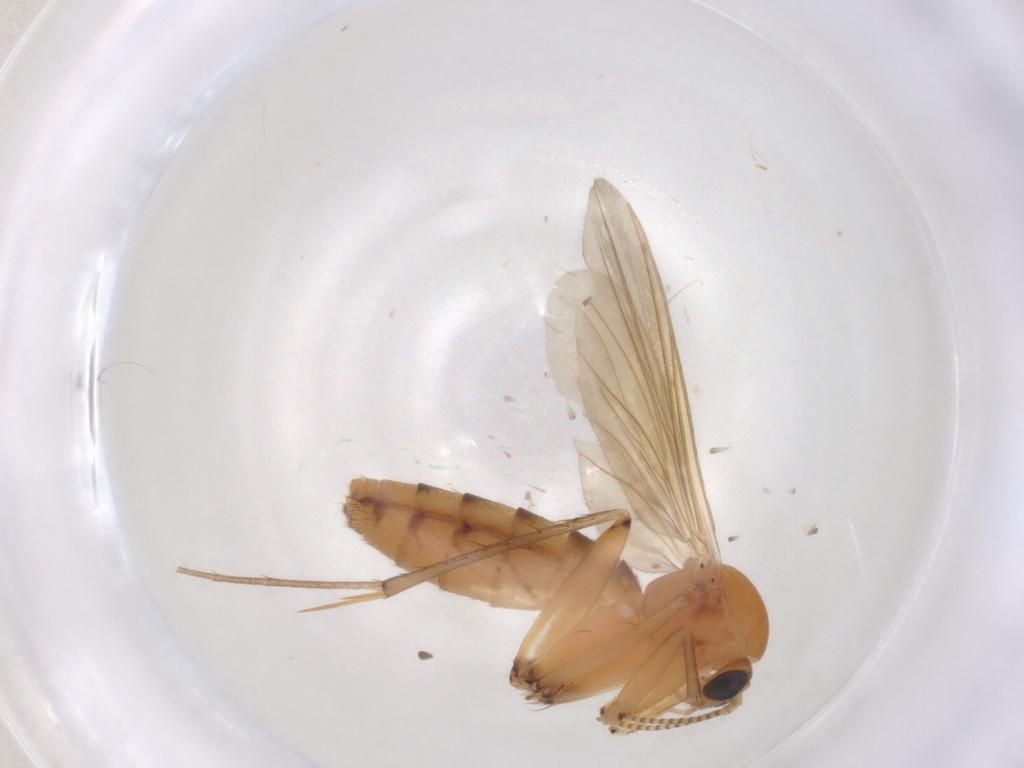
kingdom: Animalia
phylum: Arthropoda
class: Insecta
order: Diptera
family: Mycetophilidae
